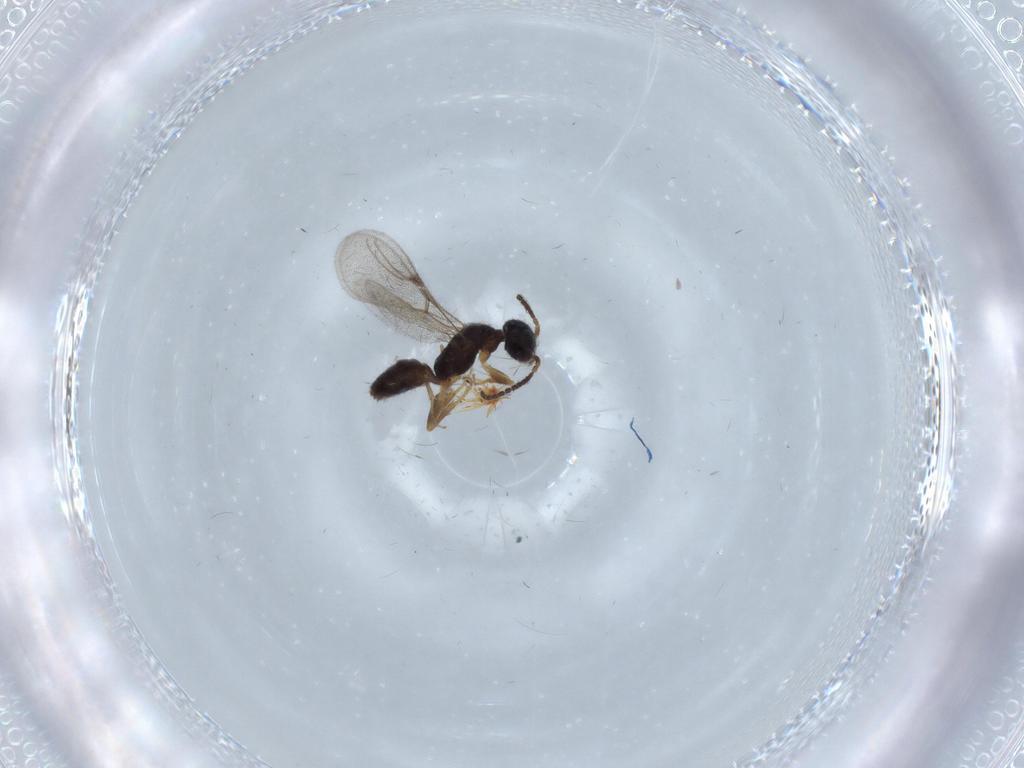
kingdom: Animalia
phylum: Arthropoda
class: Insecta
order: Hymenoptera
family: Bethylidae
